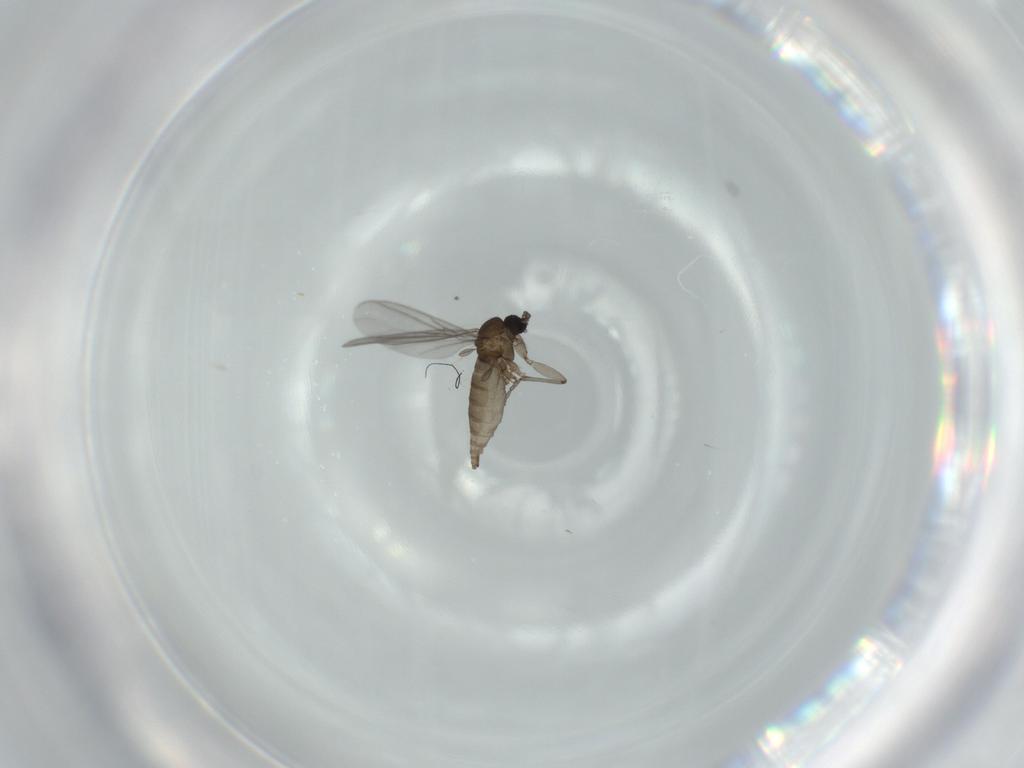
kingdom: Animalia
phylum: Arthropoda
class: Insecta
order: Diptera
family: Sciaridae
